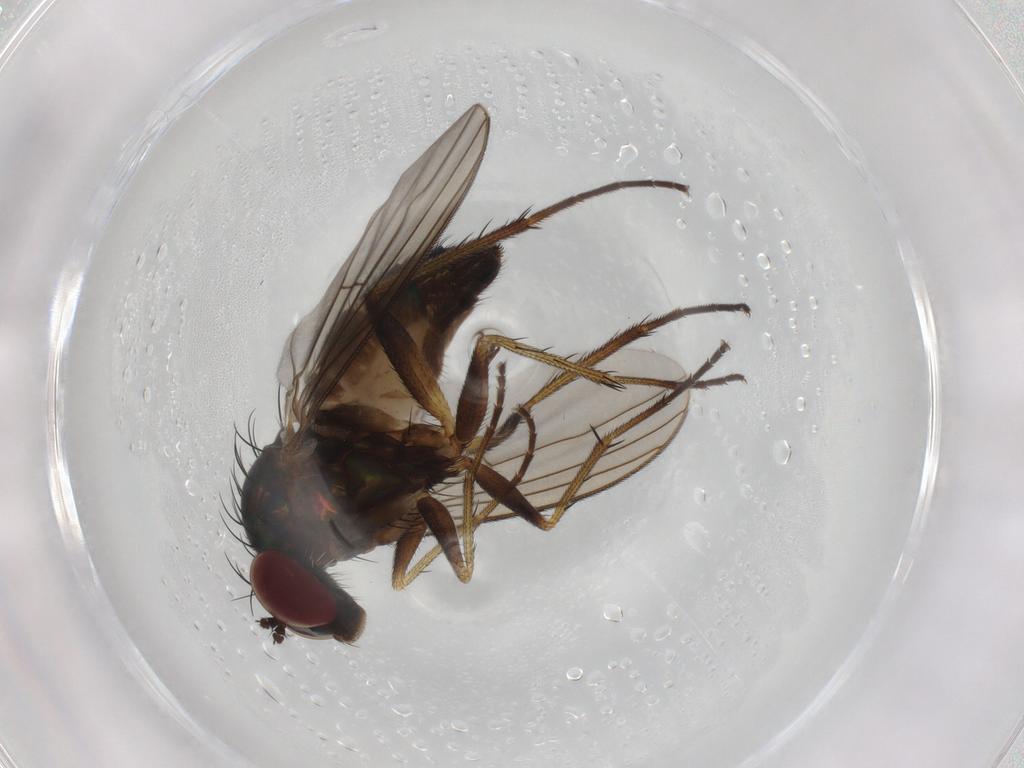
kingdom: Animalia
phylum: Arthropoda
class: Insecta
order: Diptera
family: Dolichopodidae
